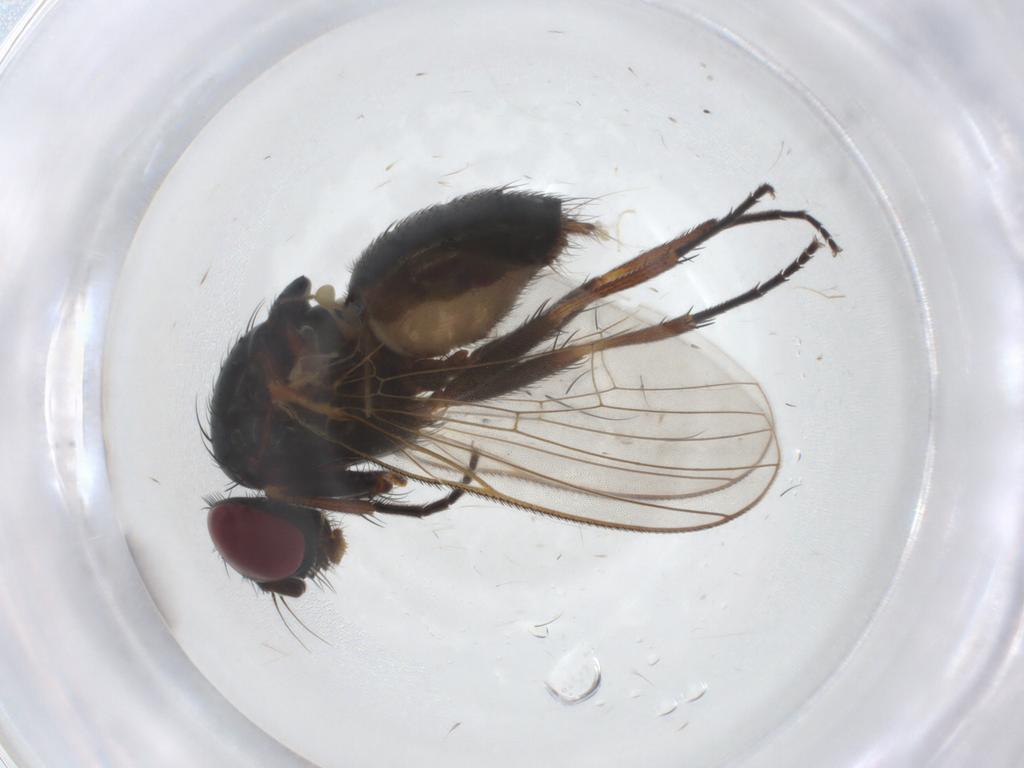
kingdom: Animalia
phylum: Arthropoda
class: Insecta
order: Diptera
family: Fannia
